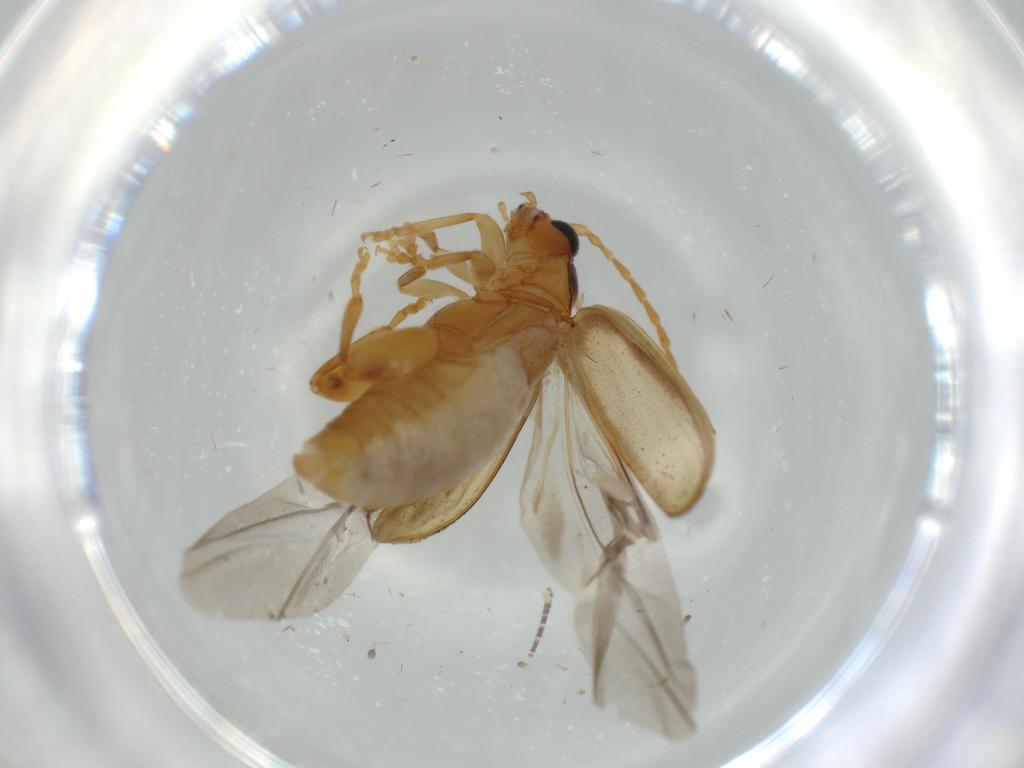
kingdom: Animalia
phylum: Arthropoda
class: Insecta
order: Coleoptera
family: Chrysomelidae
